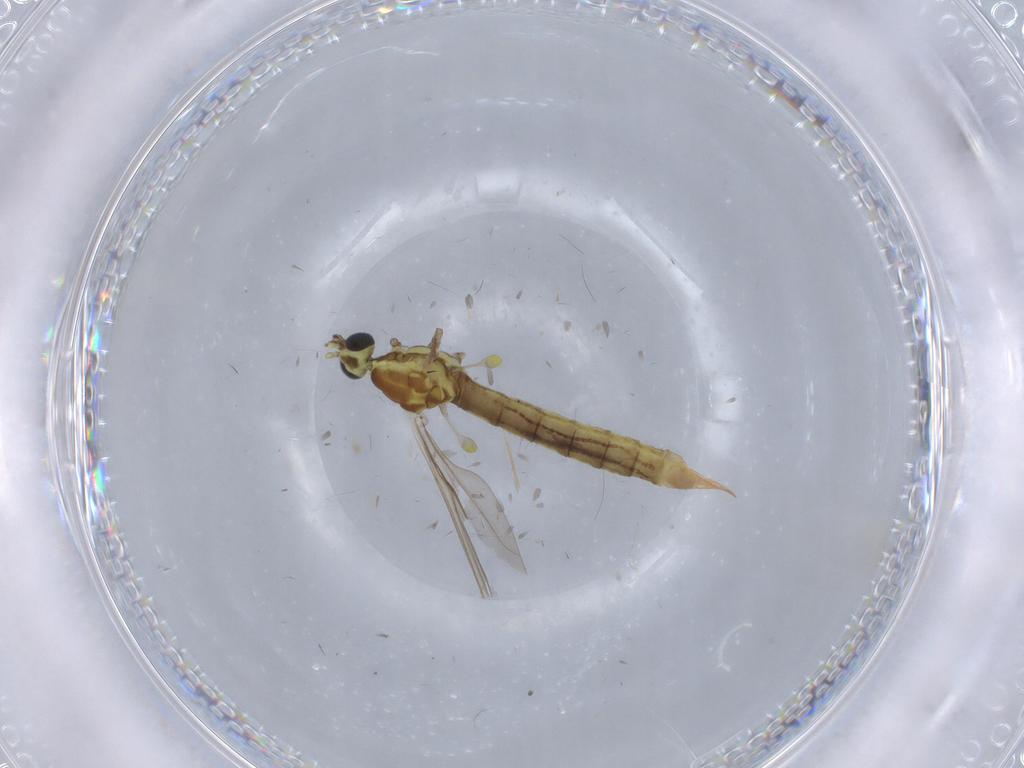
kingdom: Animalia
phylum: Arthropoda
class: Insecta
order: Diptera
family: Limoniidae
